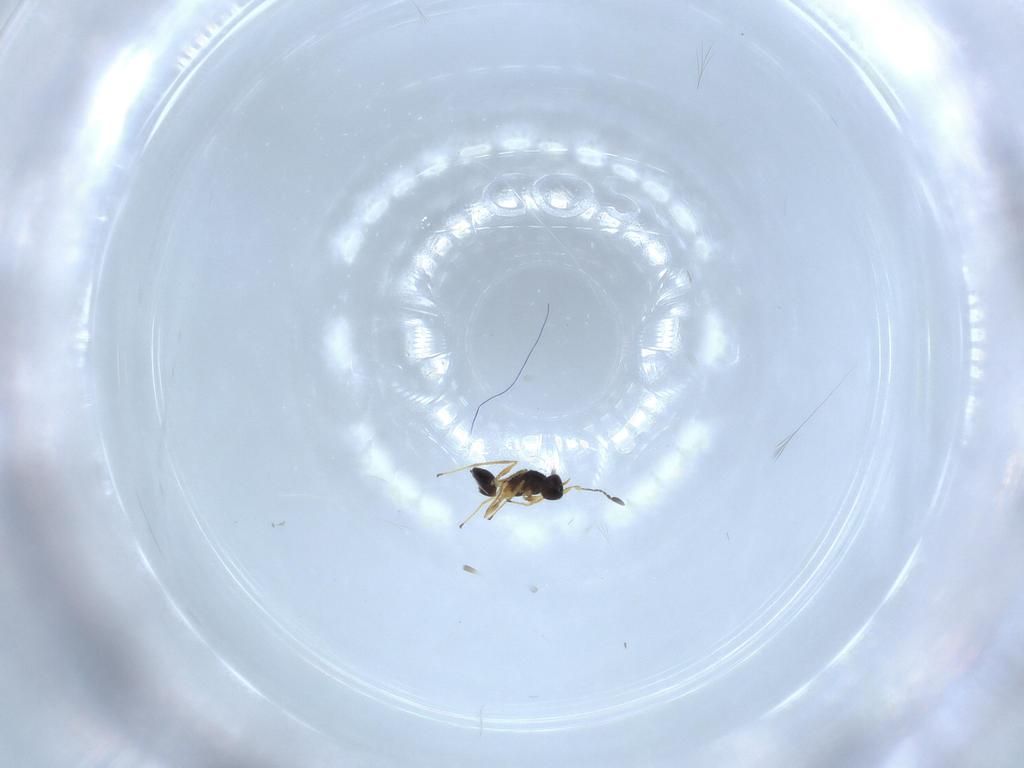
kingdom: Animalia
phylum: Arthropoda
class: Insecta
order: Hymenoptera
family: Mymaridae
